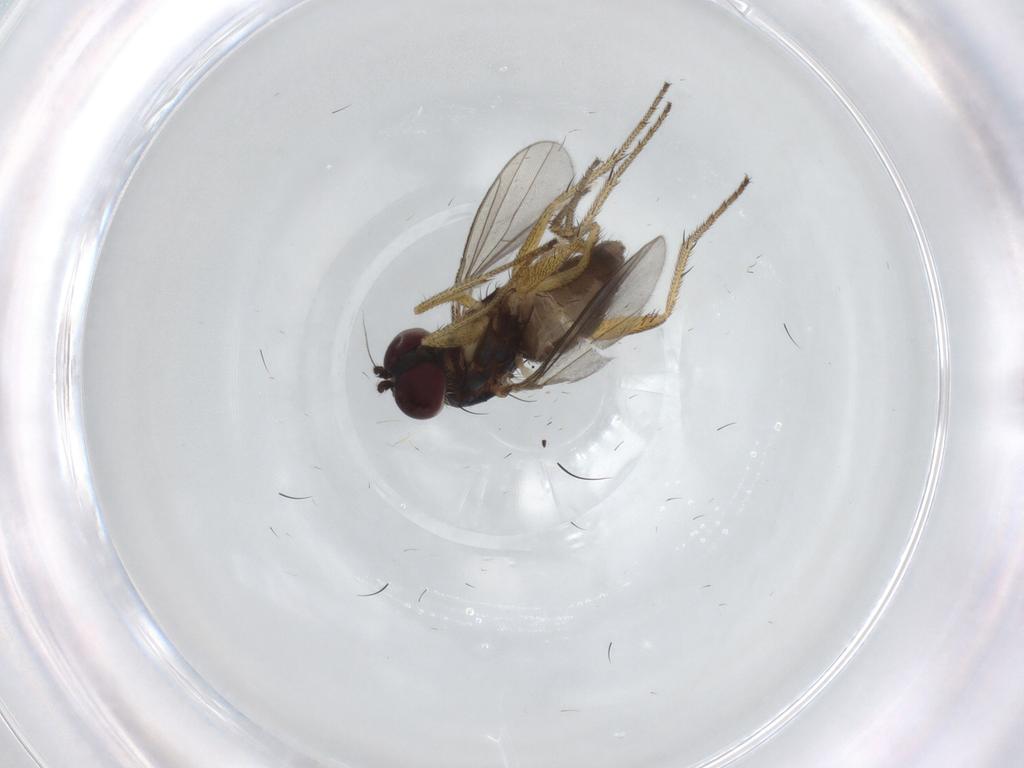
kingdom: Animalia
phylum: Arthropoda
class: Insecta
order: Diptera
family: Dolichopodidae
